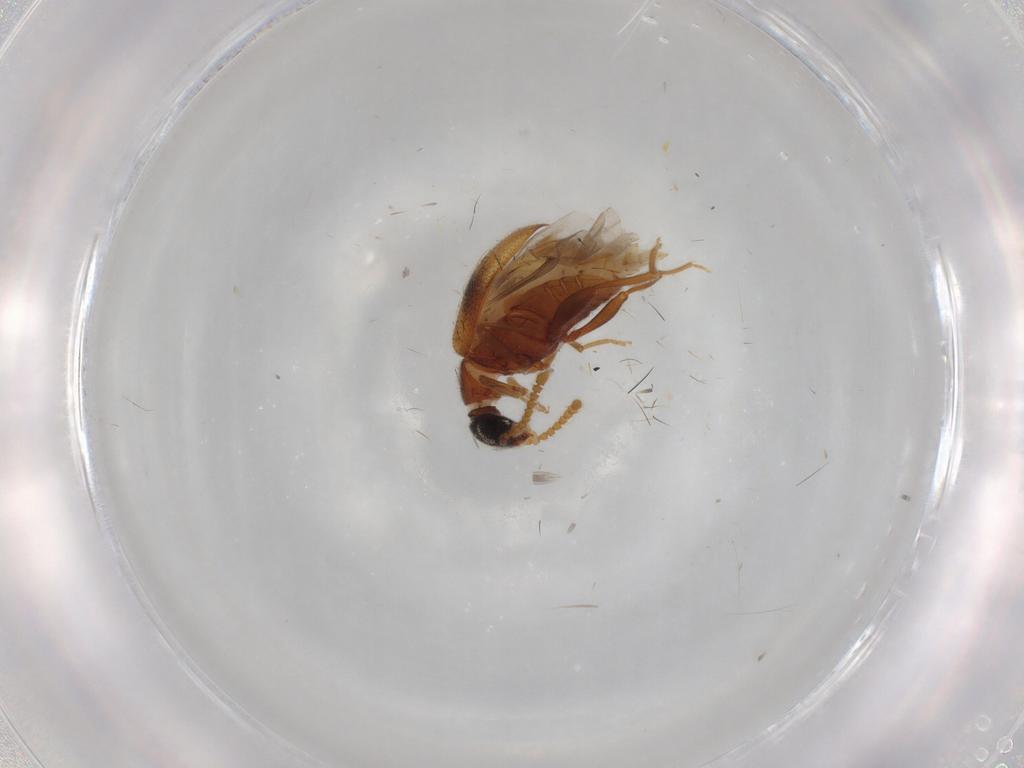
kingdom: Animalia
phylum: Arthropoda
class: Insecta
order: Coleoptera
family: Aderidae
